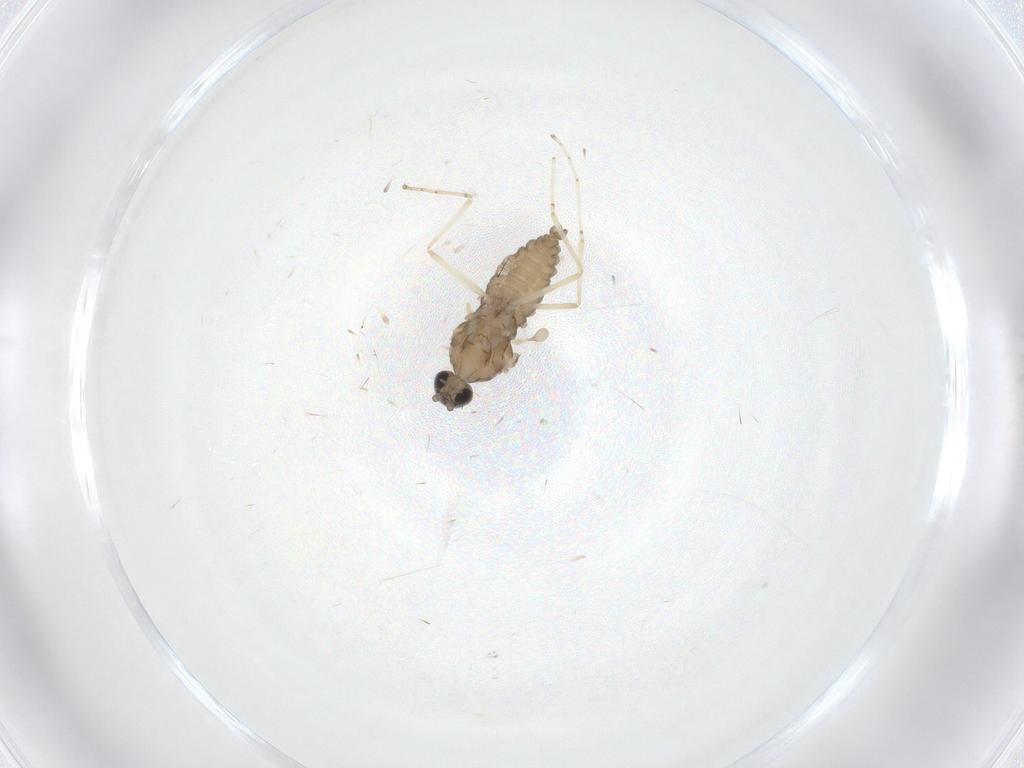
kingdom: Animalia
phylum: Arthropoda
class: Insecta
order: Diptera
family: Cecidomyiidae
